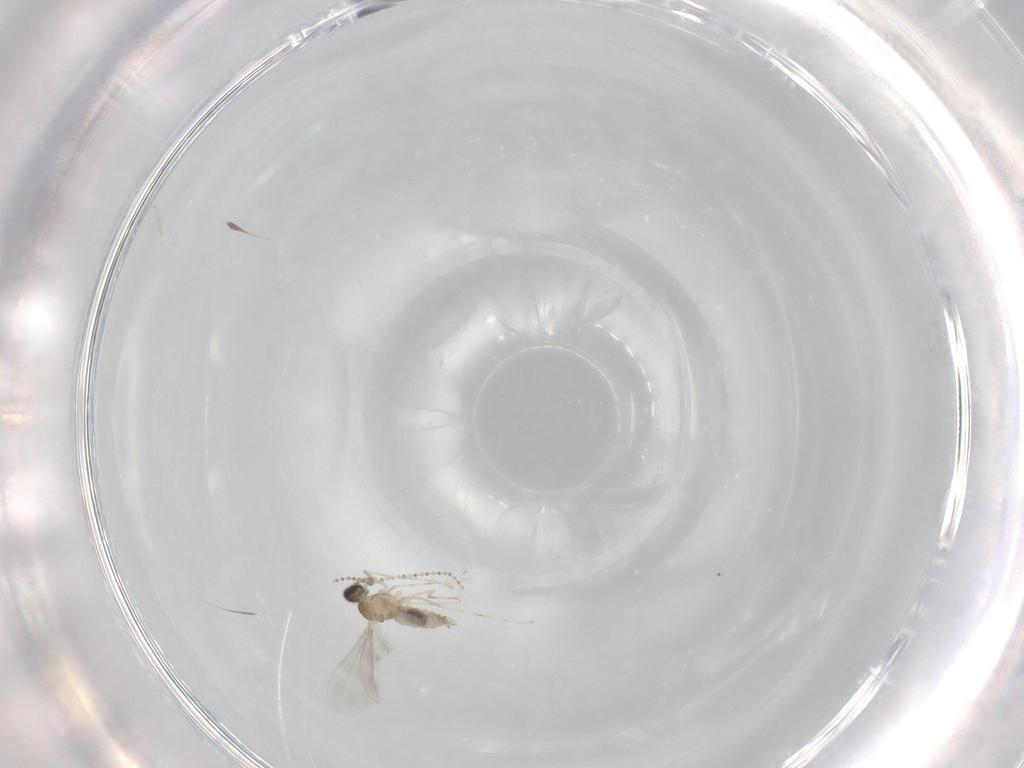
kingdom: Animalia
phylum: Arthropoda
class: Insecta
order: Diptera
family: Cecidomyiidae
